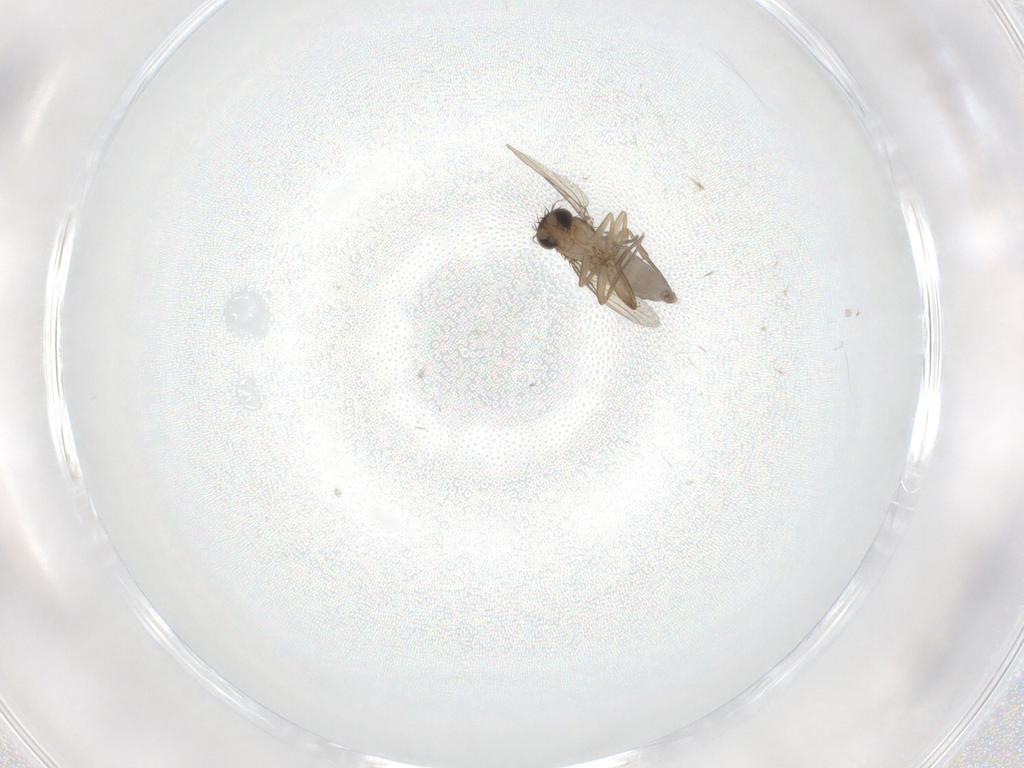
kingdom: Animalia
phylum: Arthropoda
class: Insecta
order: Diptera
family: Phoridae
